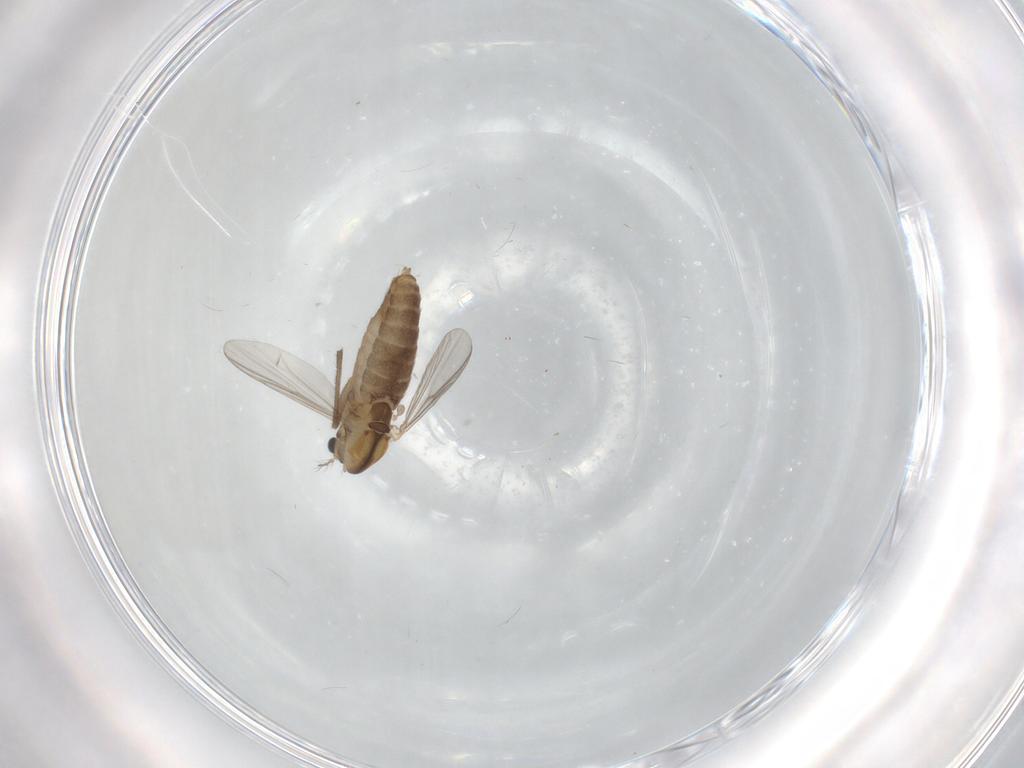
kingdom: Animalia
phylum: Arthropoda
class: Insecta
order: Diptera
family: Chironomidae
